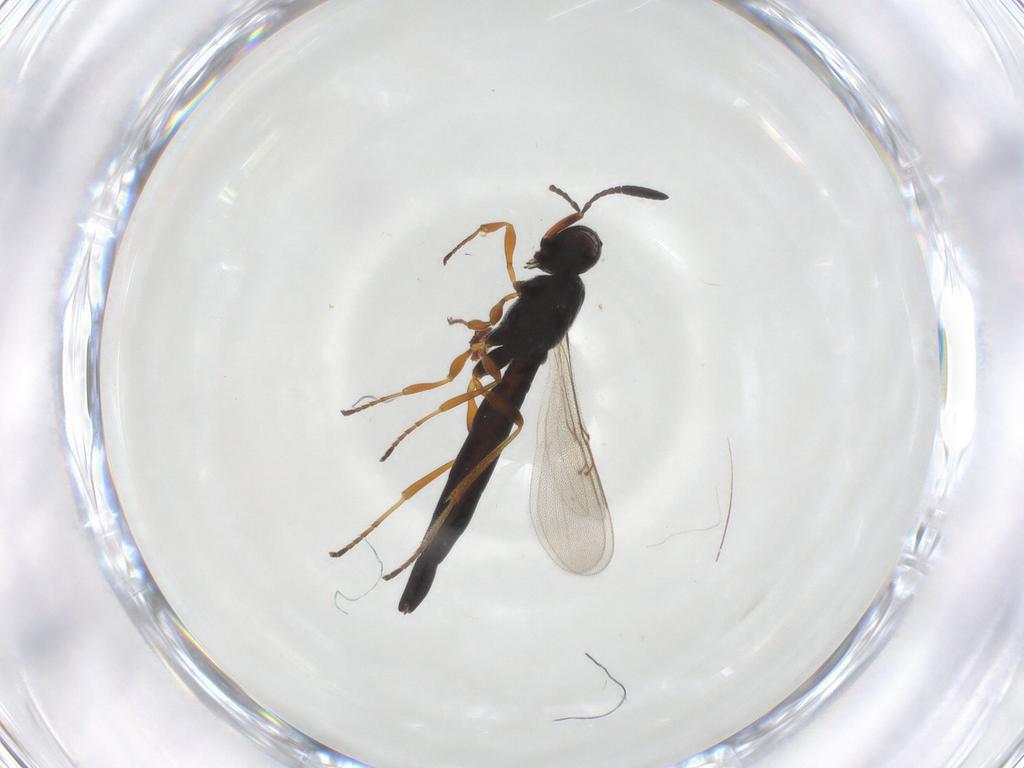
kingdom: Animalia
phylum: Arthropoda
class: Insecta
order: Hymenoptera
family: Scelionidae
